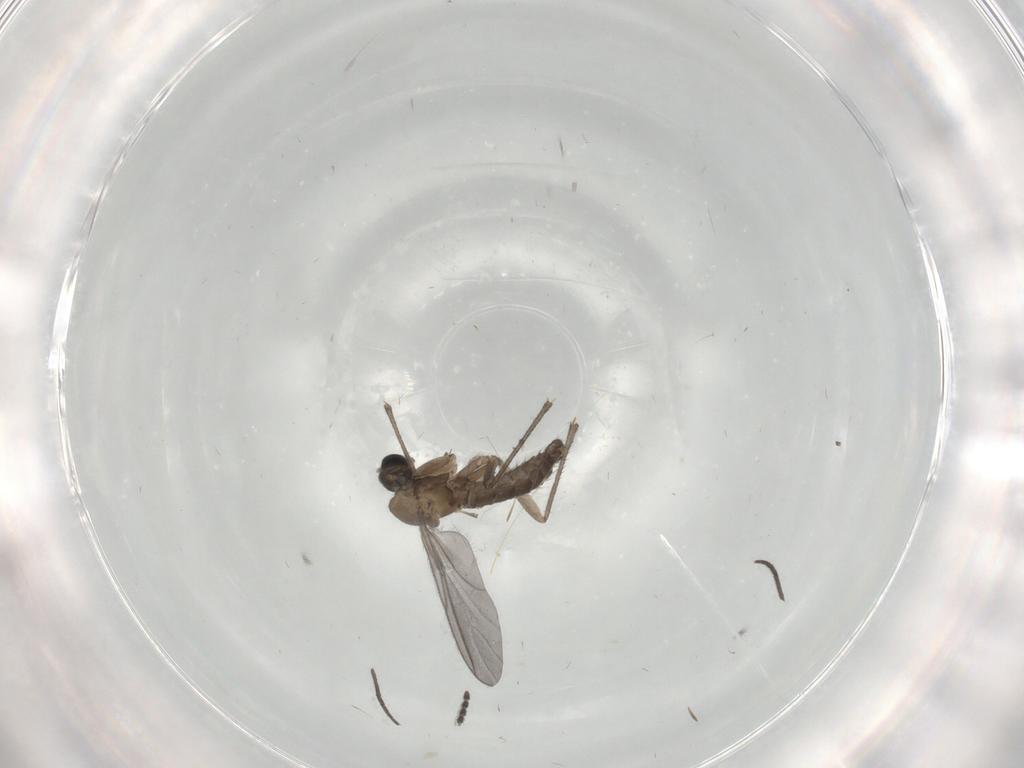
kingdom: Animalia
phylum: Arthropoda
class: Insecta
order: Diptera
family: Sciaridae
